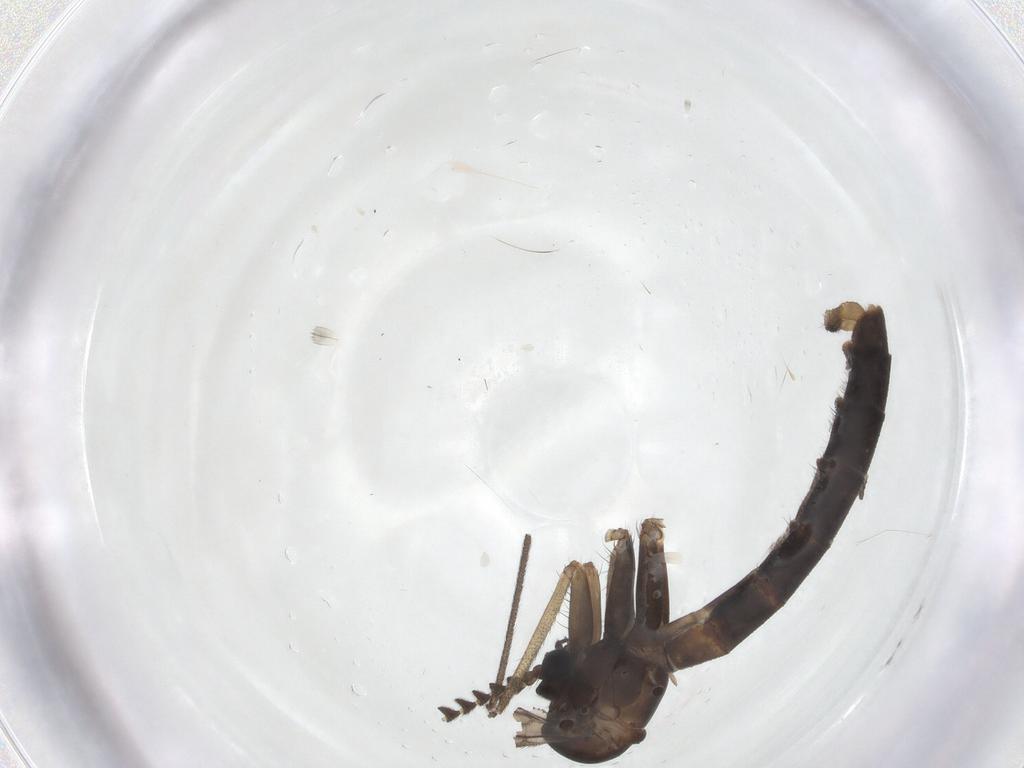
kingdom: Animalia
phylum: Arthropoda
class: Insecta
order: Diptera
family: Tachinidae
